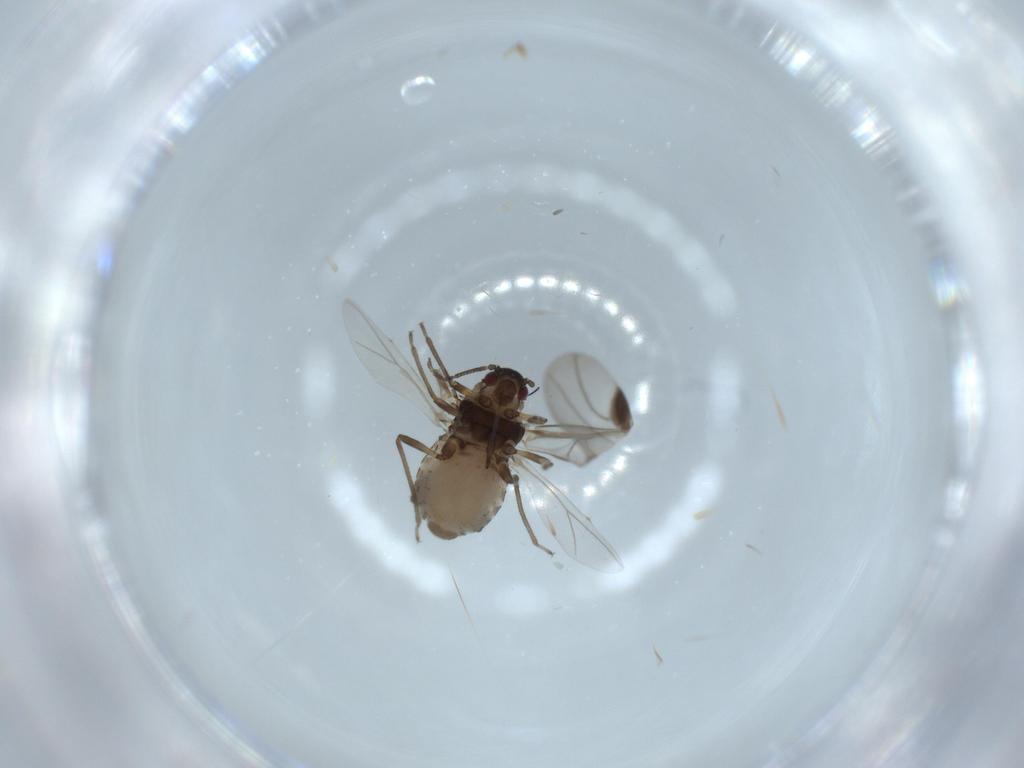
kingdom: Animalia
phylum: Arthropoda
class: Insecta
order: Hemiptera
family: Aphididae
